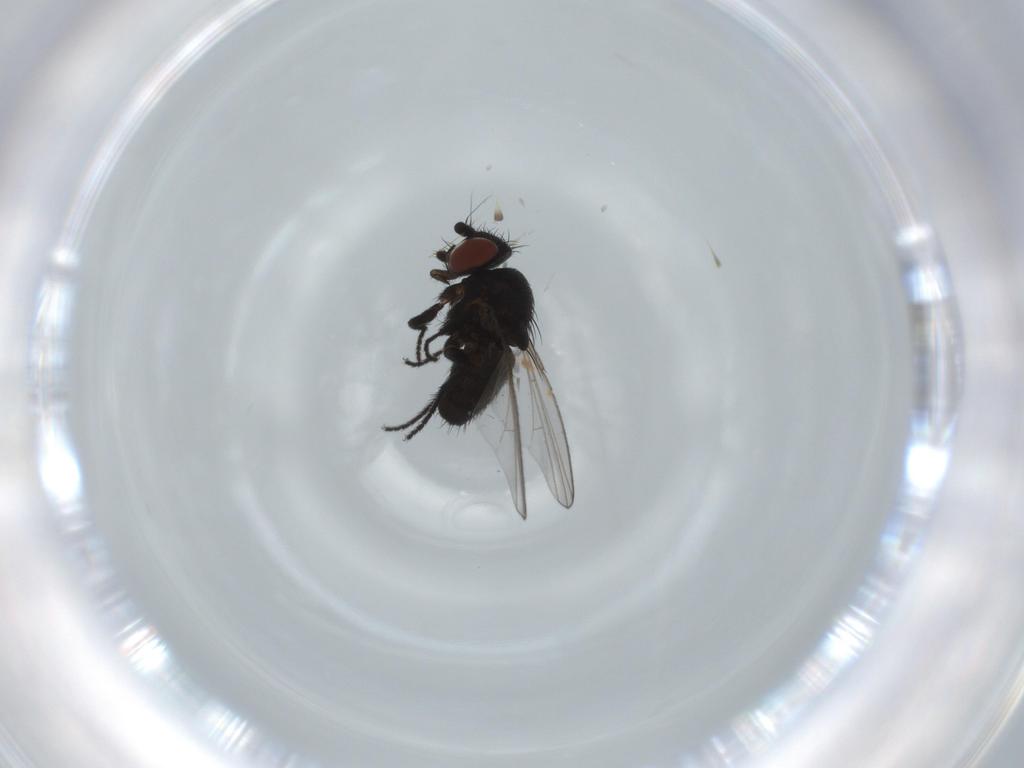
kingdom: Animalia
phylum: Arthropoda
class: Insecta
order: Diptera
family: Milichiidae
